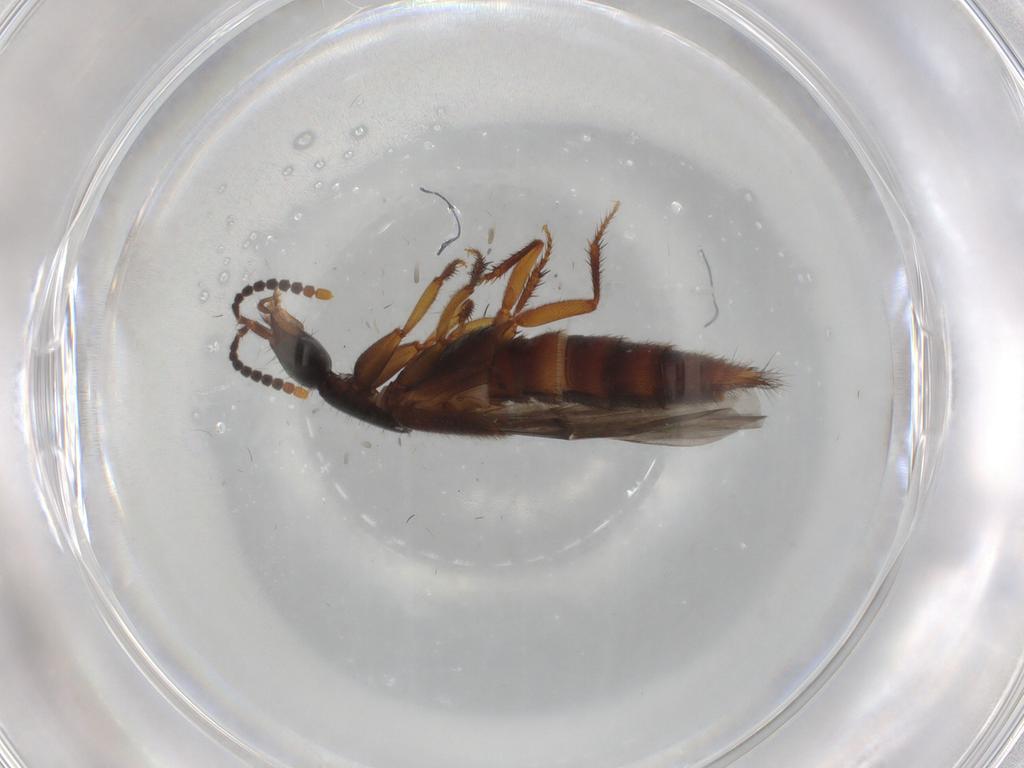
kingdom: Animalia
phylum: Arthropoda
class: Insecta
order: Coleoptera
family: Staphylinidae
